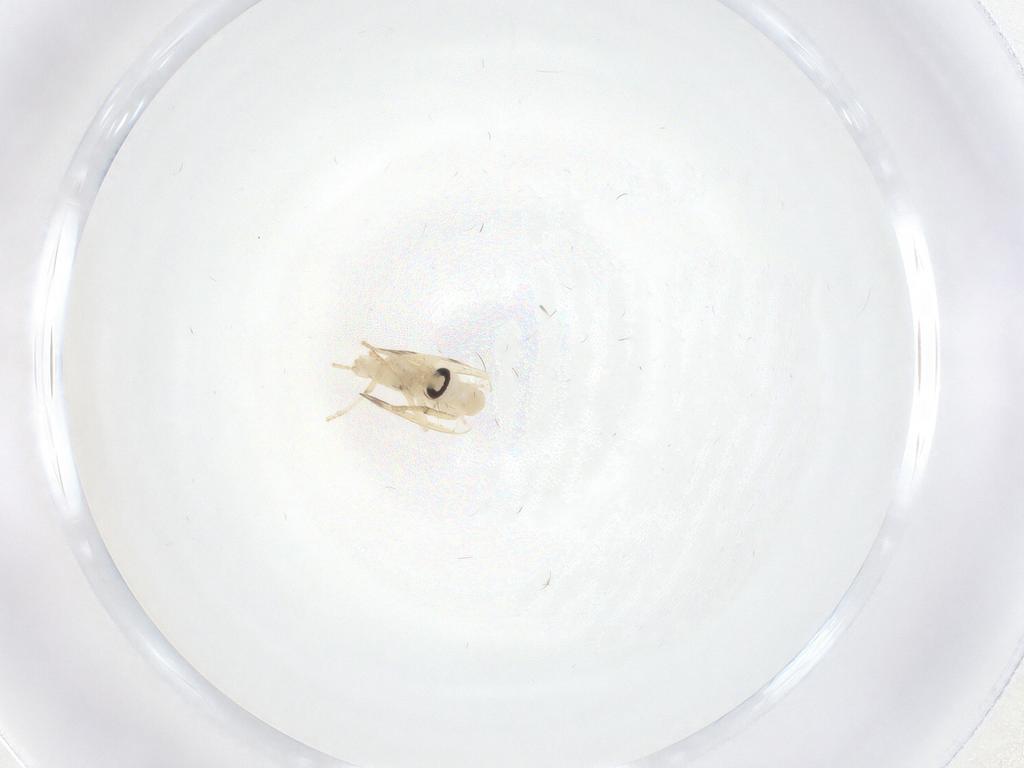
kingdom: Animalia
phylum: Arthropoda
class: Insecta
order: Diptera
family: Psychodidae
